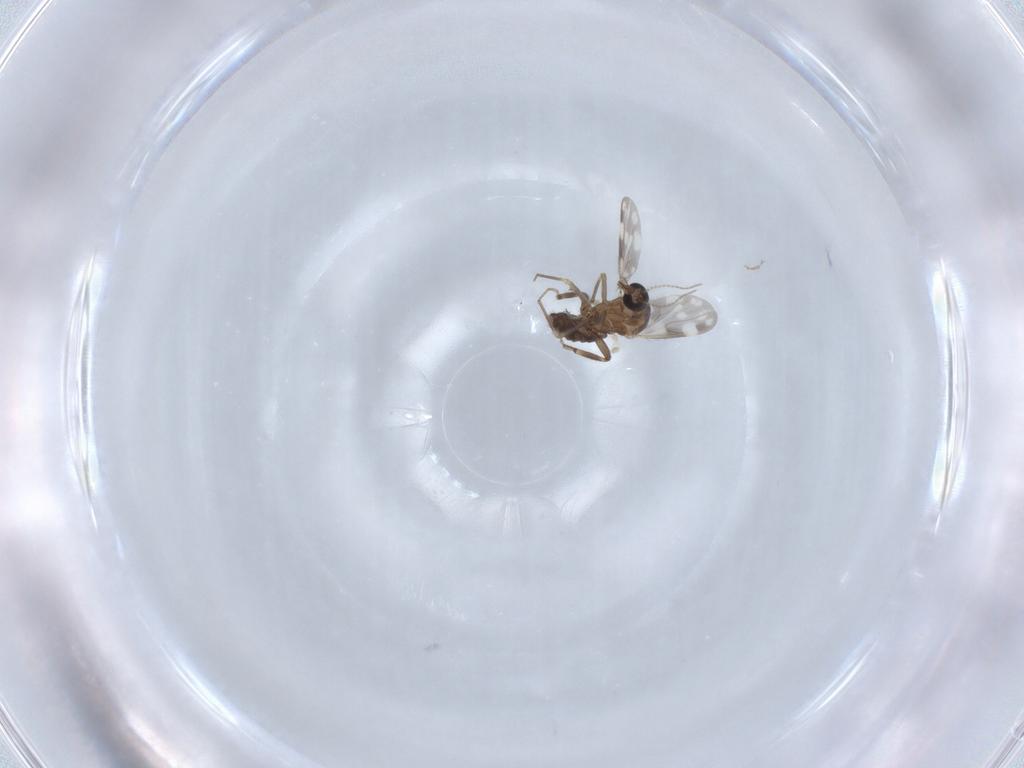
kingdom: Animalia
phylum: Arthropoda
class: Insecta
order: Diptera
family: Ceratopogonidae
